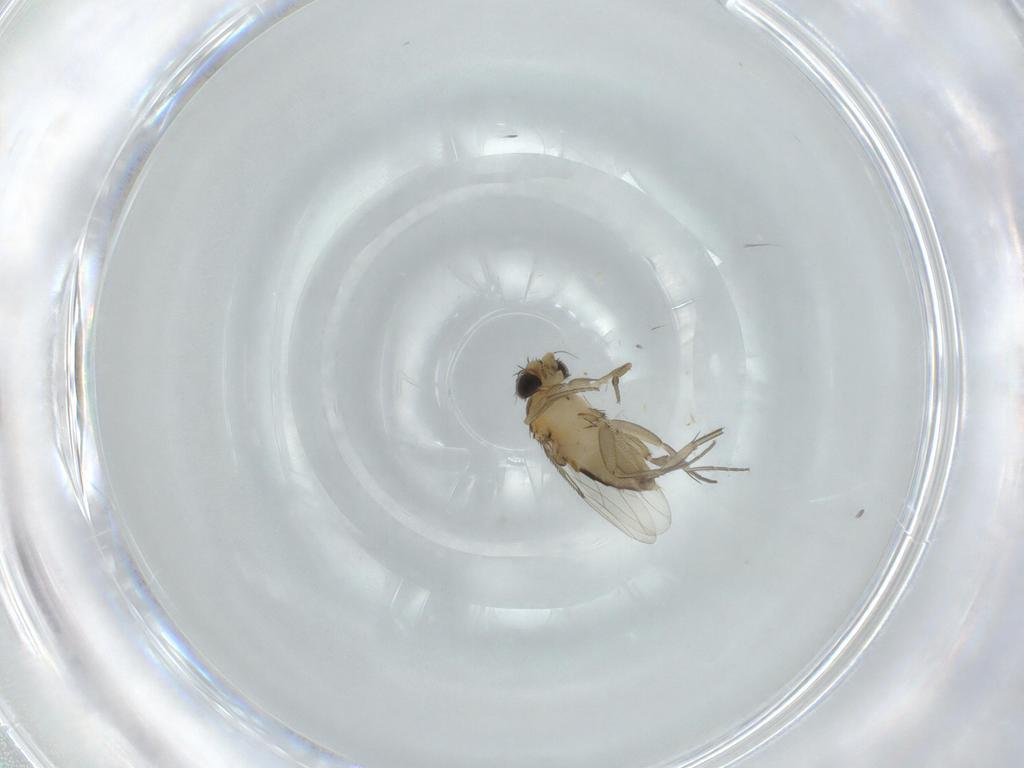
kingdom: Animalia
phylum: Arthropoda
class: Insecta
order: Diptera
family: Phoridae
